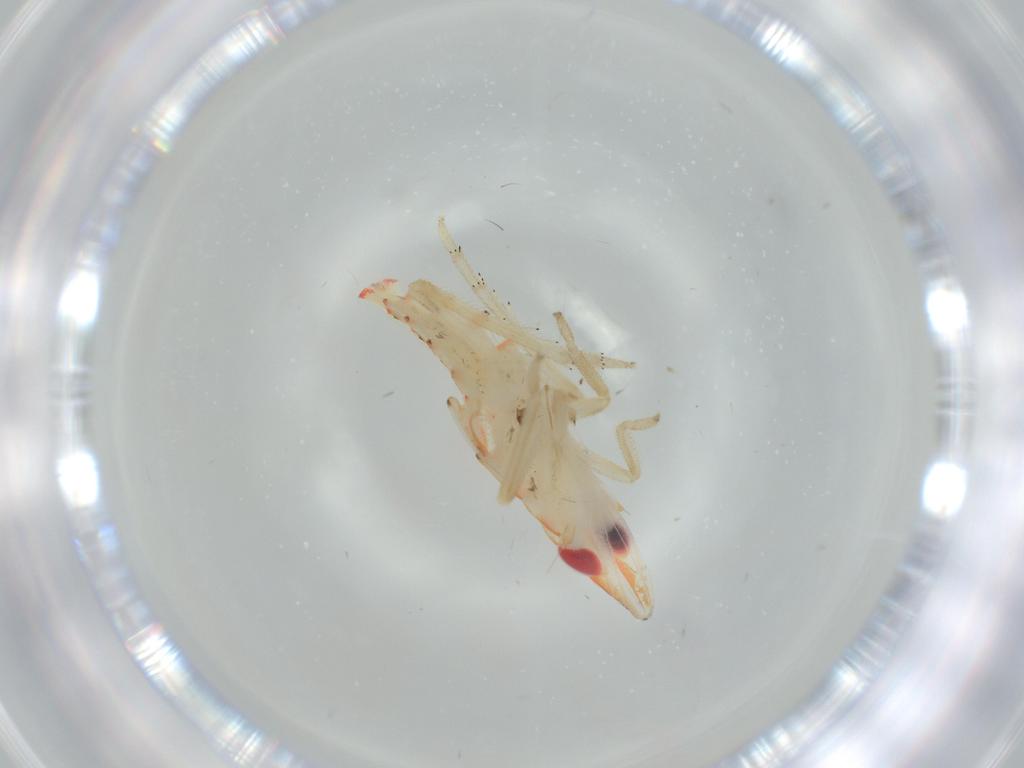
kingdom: Animalia
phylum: Arthropoda
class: Insecta
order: Hemiptera
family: Tropiduchidae
